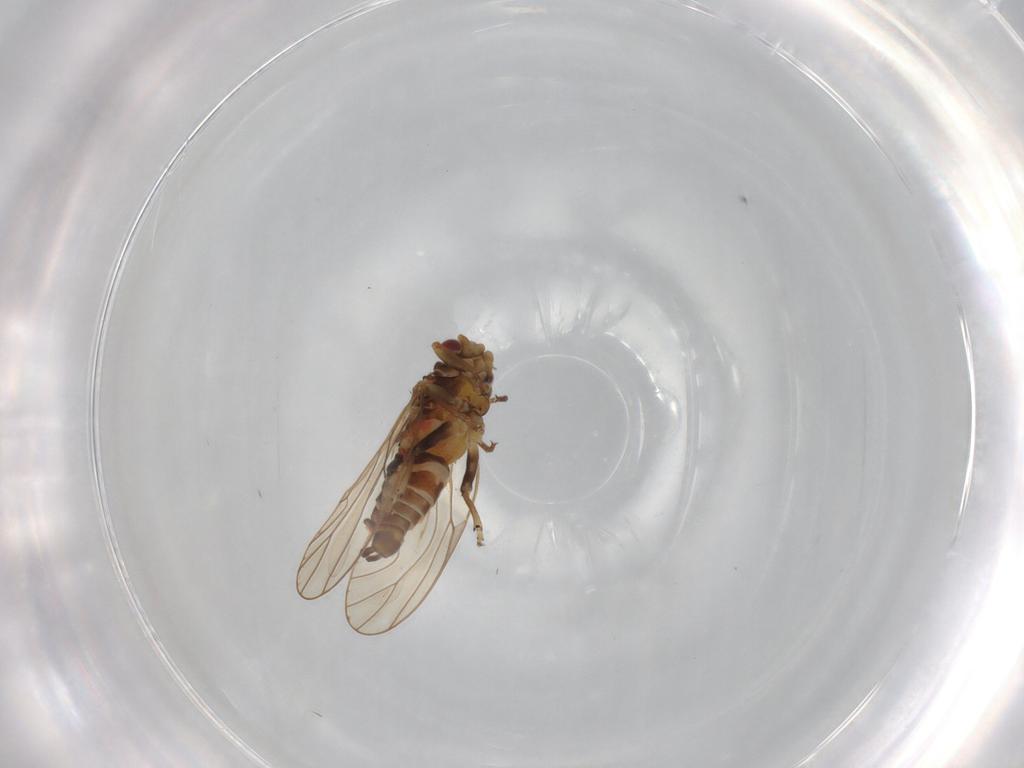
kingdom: Animalia
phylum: Arthropoda
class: Insecta
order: Hemiptera
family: Psyllidae
